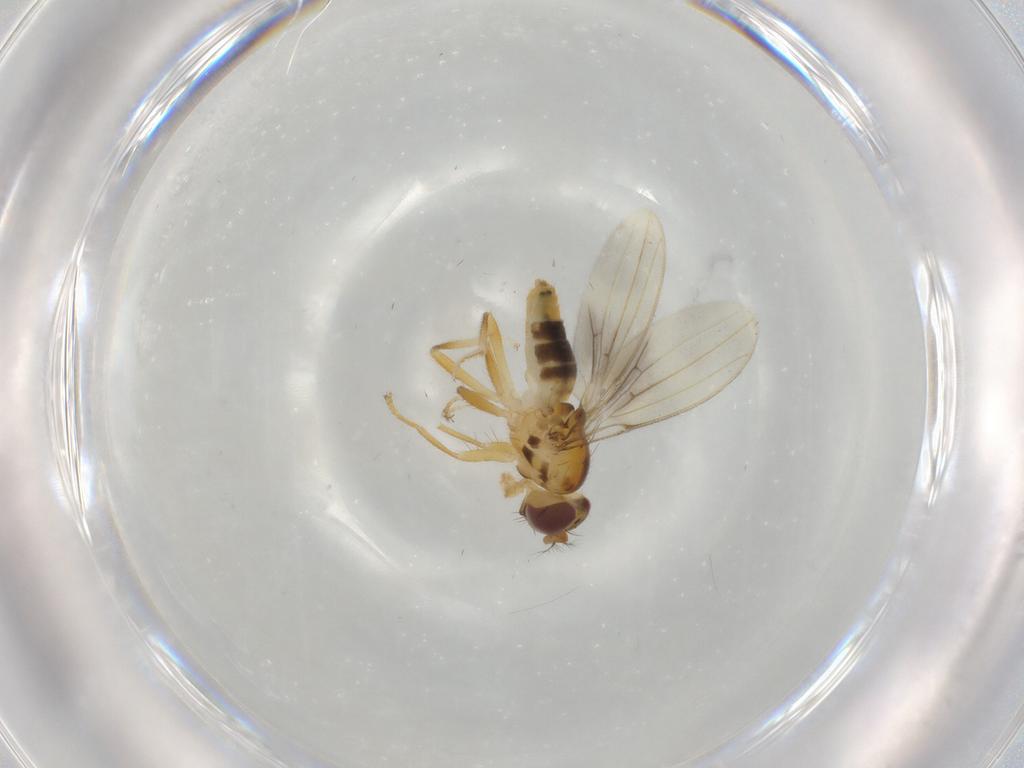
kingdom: Animalia
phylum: Arthropoda
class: Insecta
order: Diptera
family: Periscelididae
